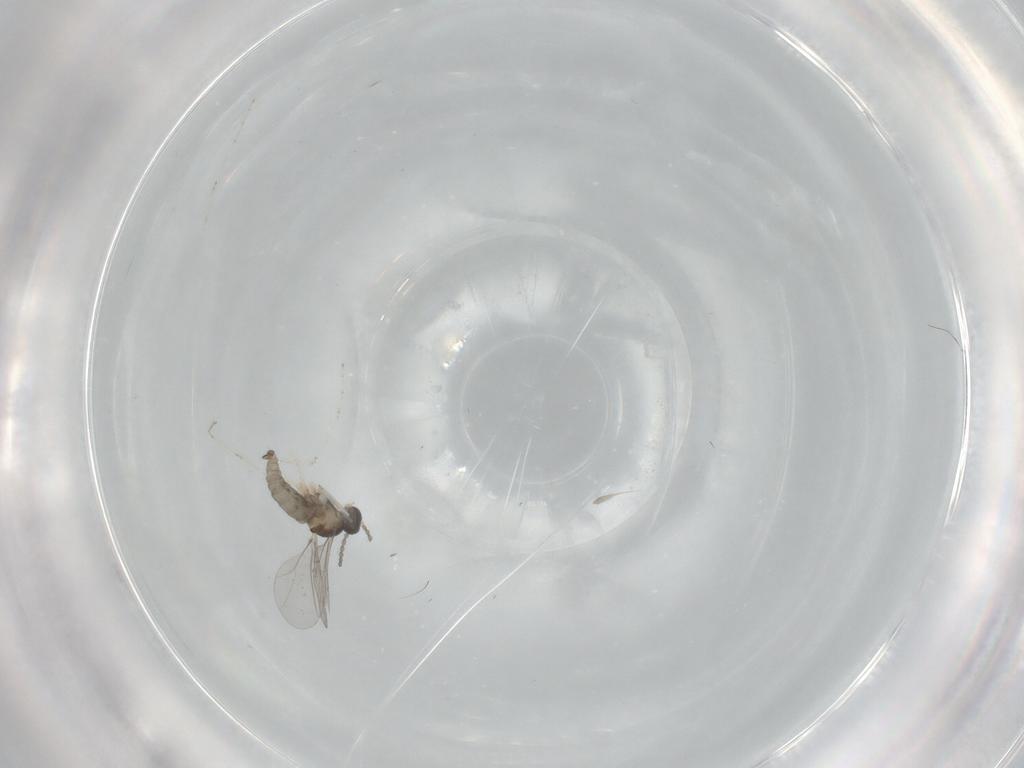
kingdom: Animalia
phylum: Arthropoda
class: Insecta
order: Diptera
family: Cecidomyiidae
